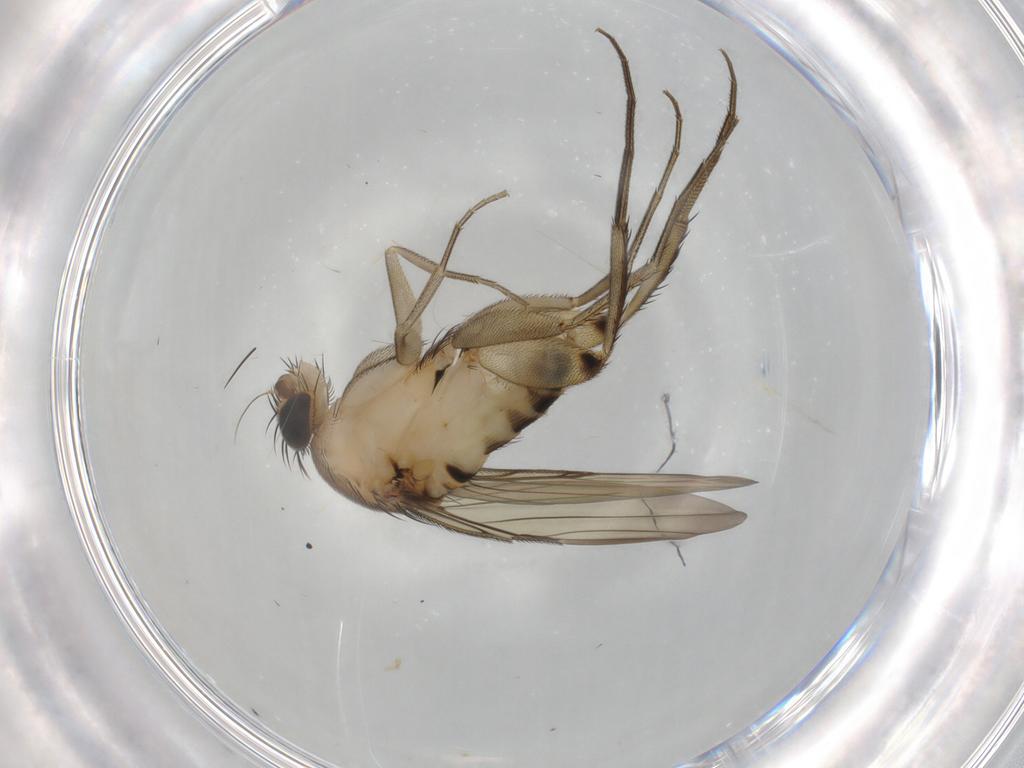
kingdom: Animalia
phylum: Arthropoda
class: Insecta
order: Diptera
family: Phoridae
